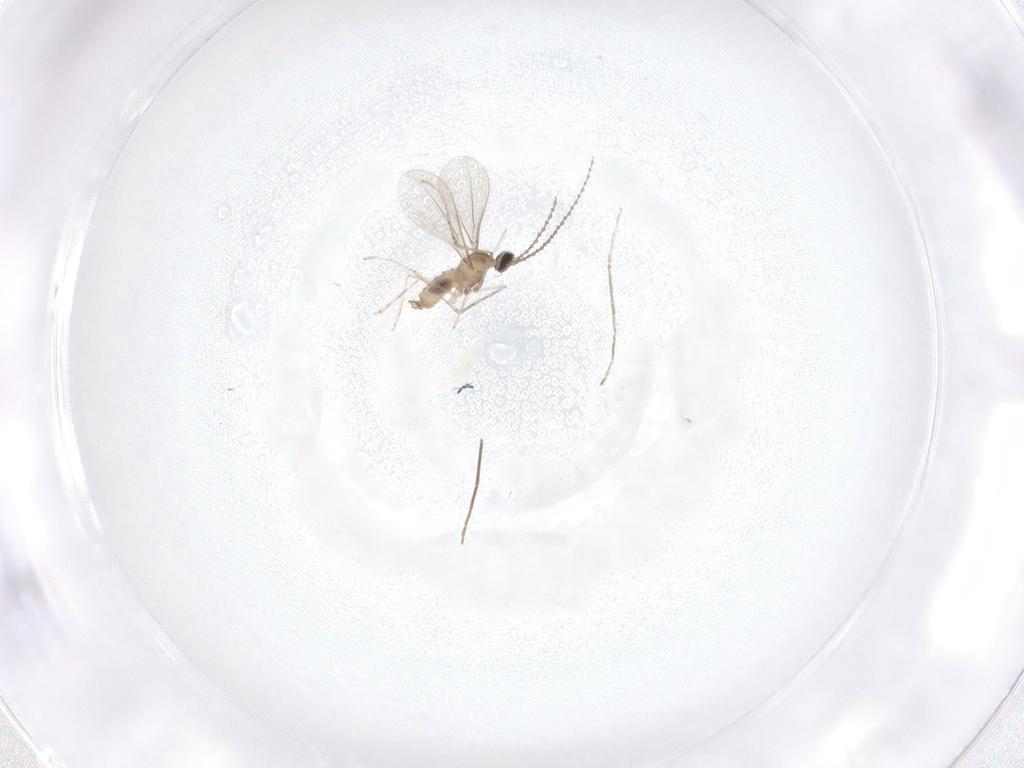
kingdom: Animalia
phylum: Arthropoda
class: Insecta
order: Diptera
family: Cecidomyiidae
